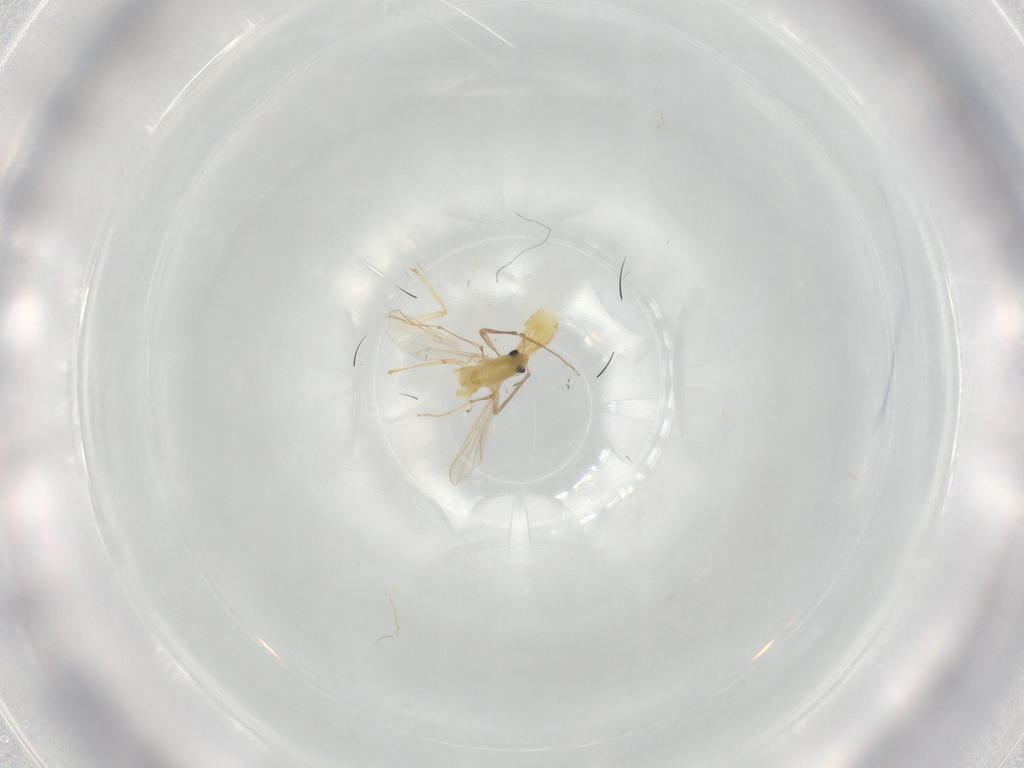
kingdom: Animalia
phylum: Arthropoda
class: Insecta
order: Diptera
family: Chironomidae
